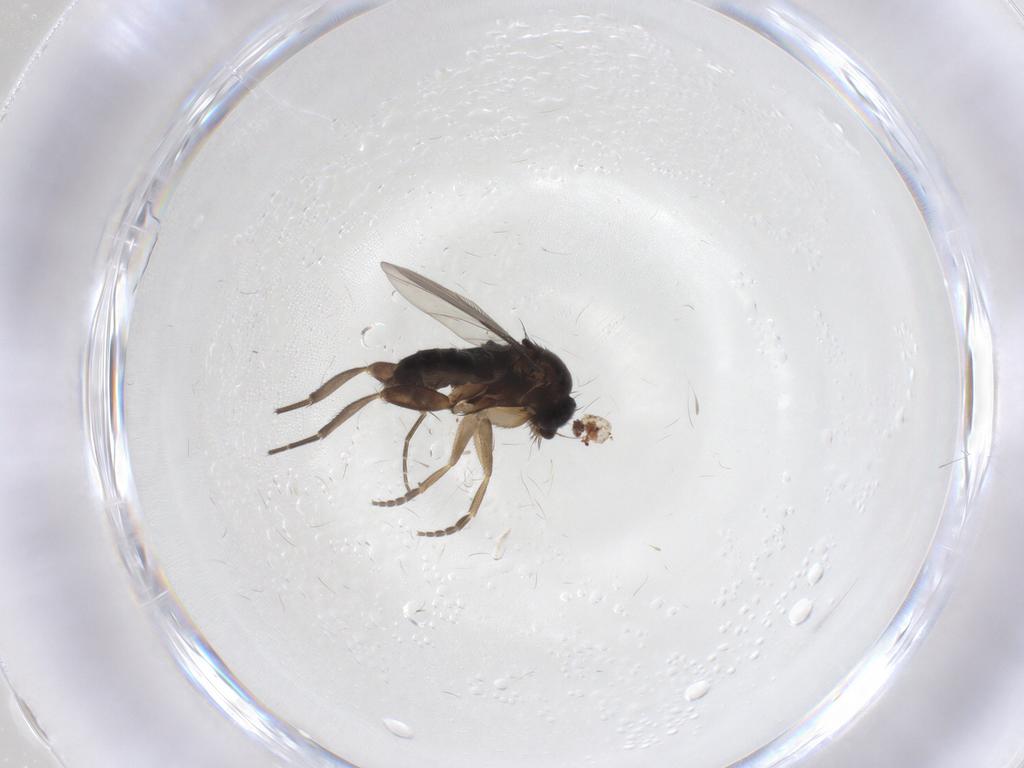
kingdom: Animalia
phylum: Arthropoda
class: Insecta
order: Diptera
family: Phoridae
